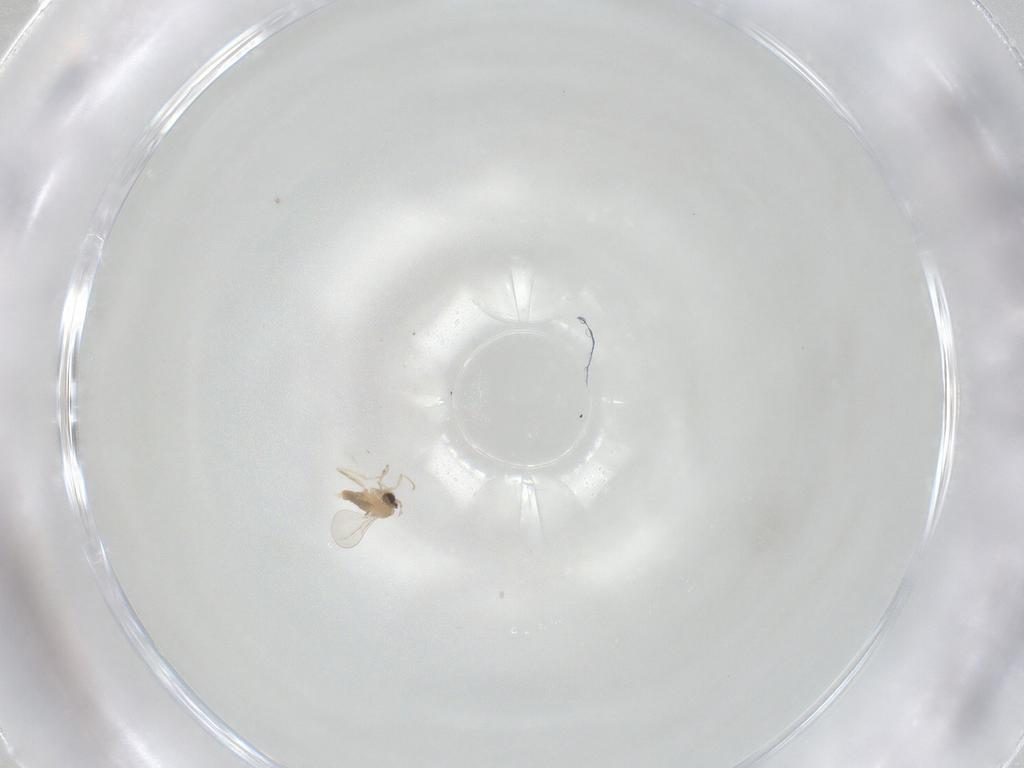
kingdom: Animalia
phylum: Arthropoda
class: Insecta
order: Diptera
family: Cecidomyiidae
